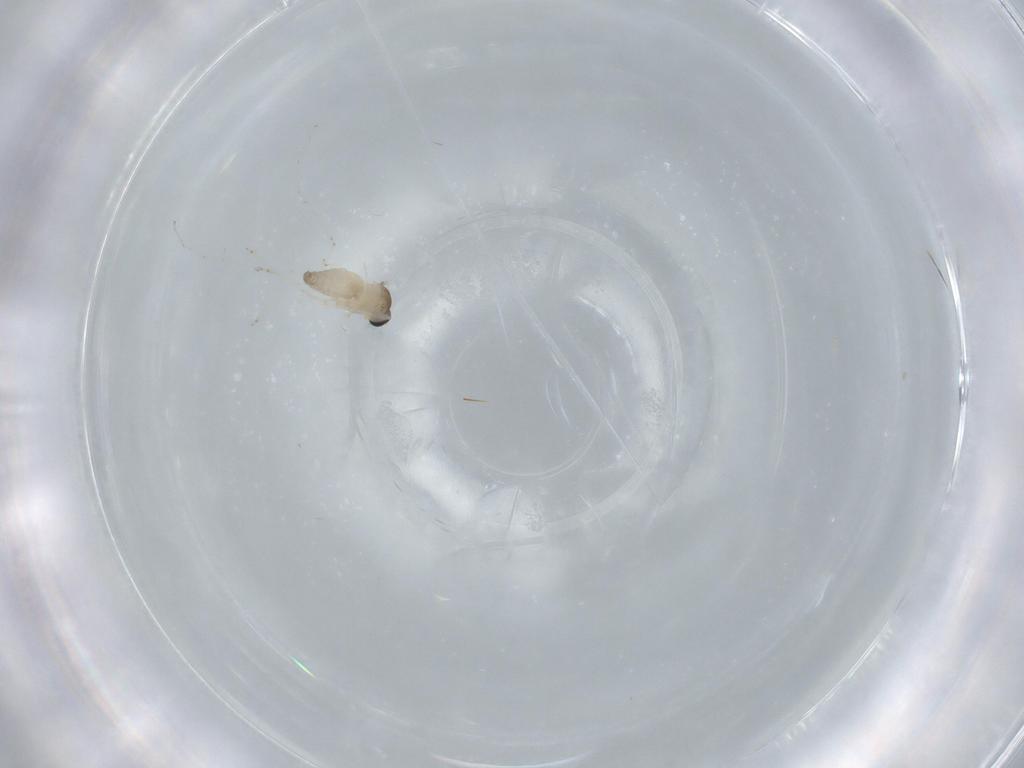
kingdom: Animalia
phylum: Arthropoda
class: Insecta
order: Diptera
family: Cecidomyiidae
